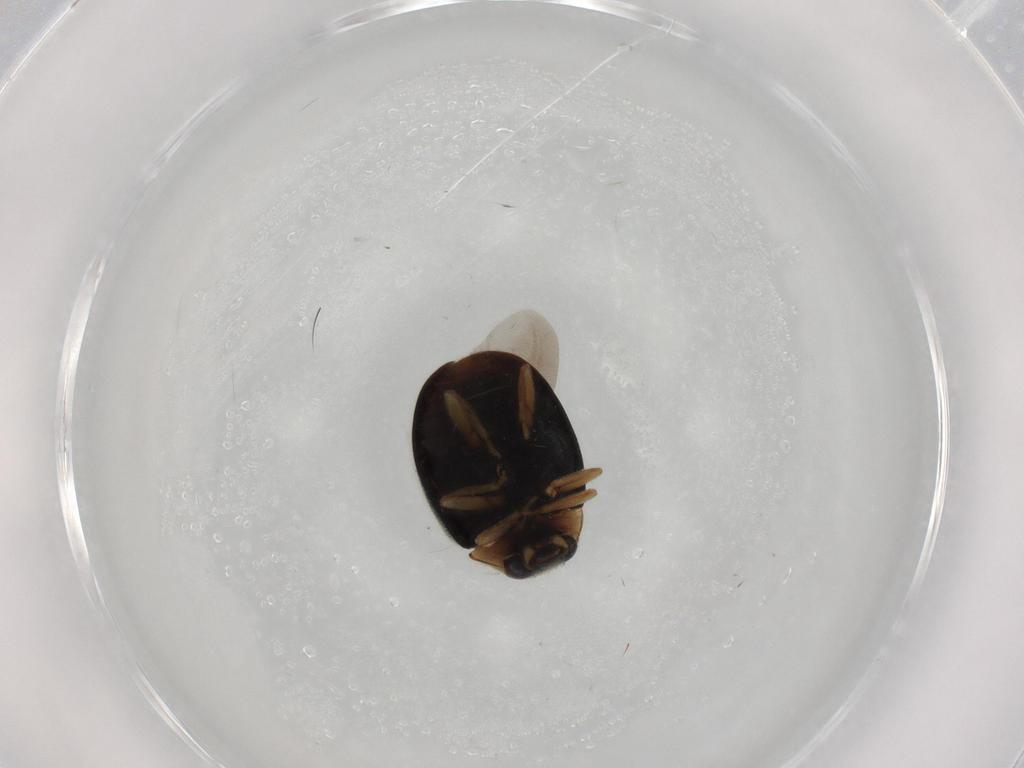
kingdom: Animalia
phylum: Arthropoda
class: Insecta
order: Coleoptera
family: Coccinellidae
